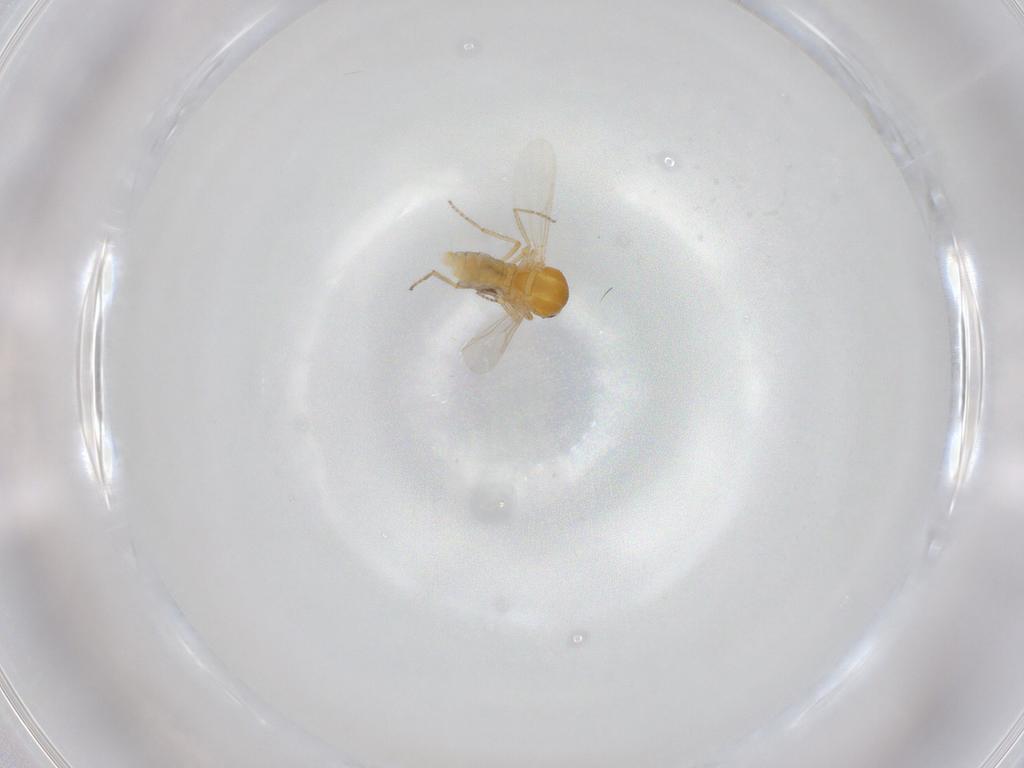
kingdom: Animalia
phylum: Arthropoda
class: Insecta
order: Diptera
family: Ceratopogonidae
